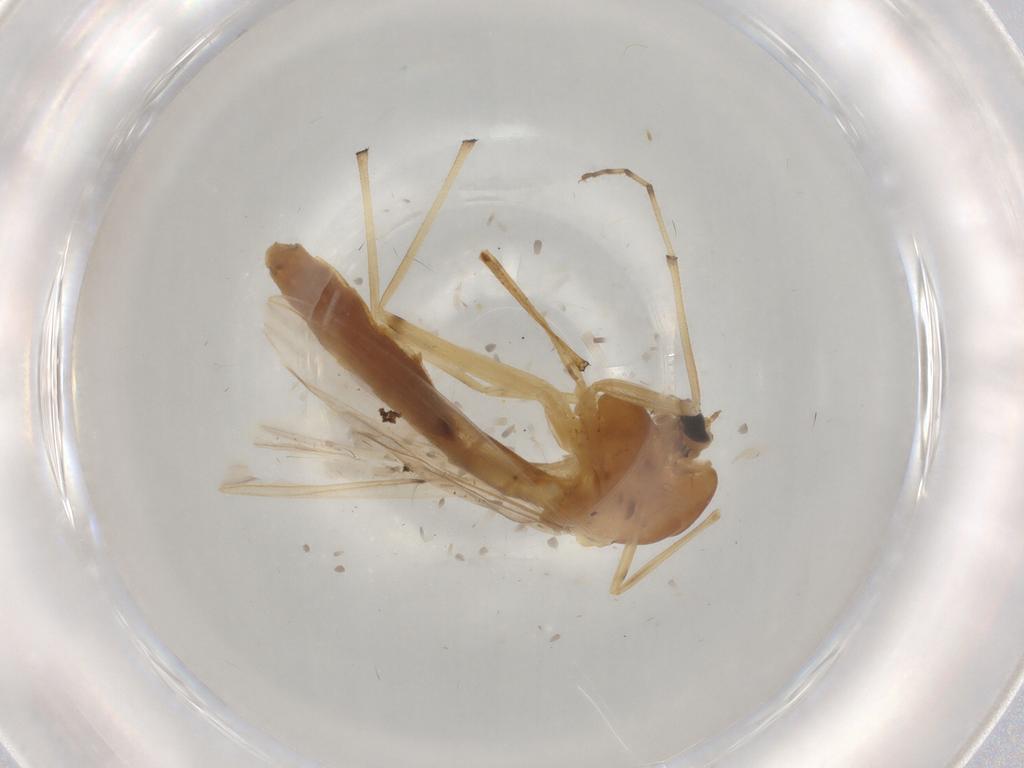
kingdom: Animalia
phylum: Arthropoda
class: Insecta
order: Diptera
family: Chironomidae
